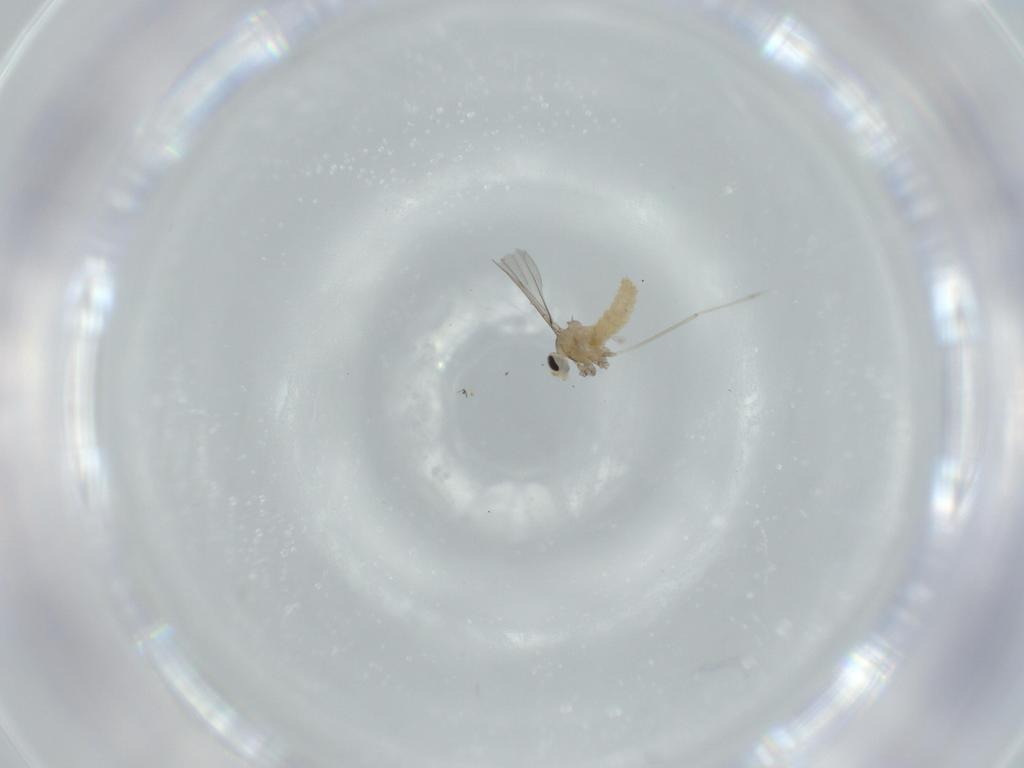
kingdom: Animalia
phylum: Arthropoda
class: Insecta
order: Diptera
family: Cecidomyiidae
